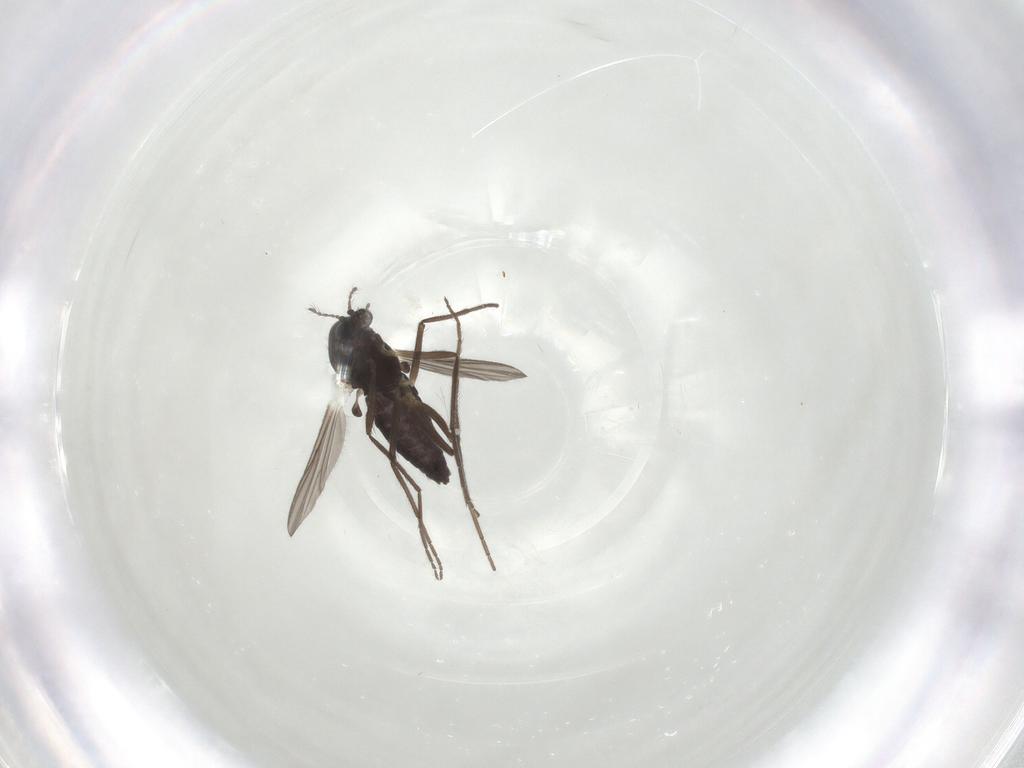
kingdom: Animalia
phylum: Arthropoda
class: Insecta
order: Diptera
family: Chironomidae
